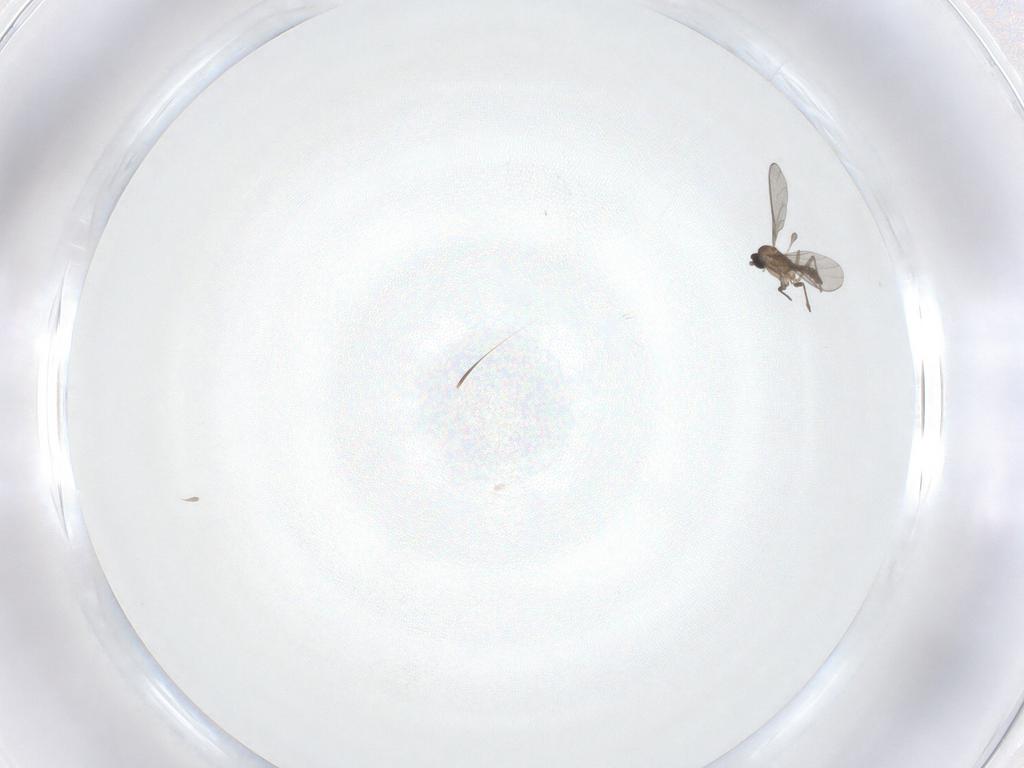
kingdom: Animalia
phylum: Arthropoda
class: Insecta
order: Diptera
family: Sciaridae
